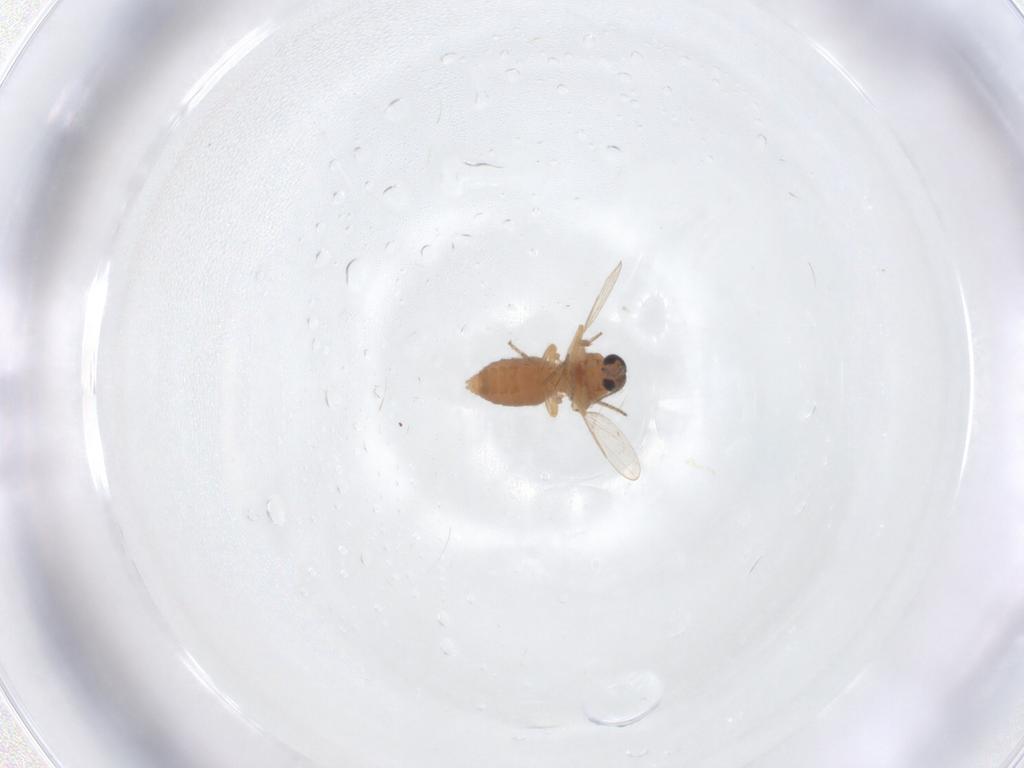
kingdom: Animalia
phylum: Arthropoda
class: Insecta
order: Diptera
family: Ceratopogonidae
